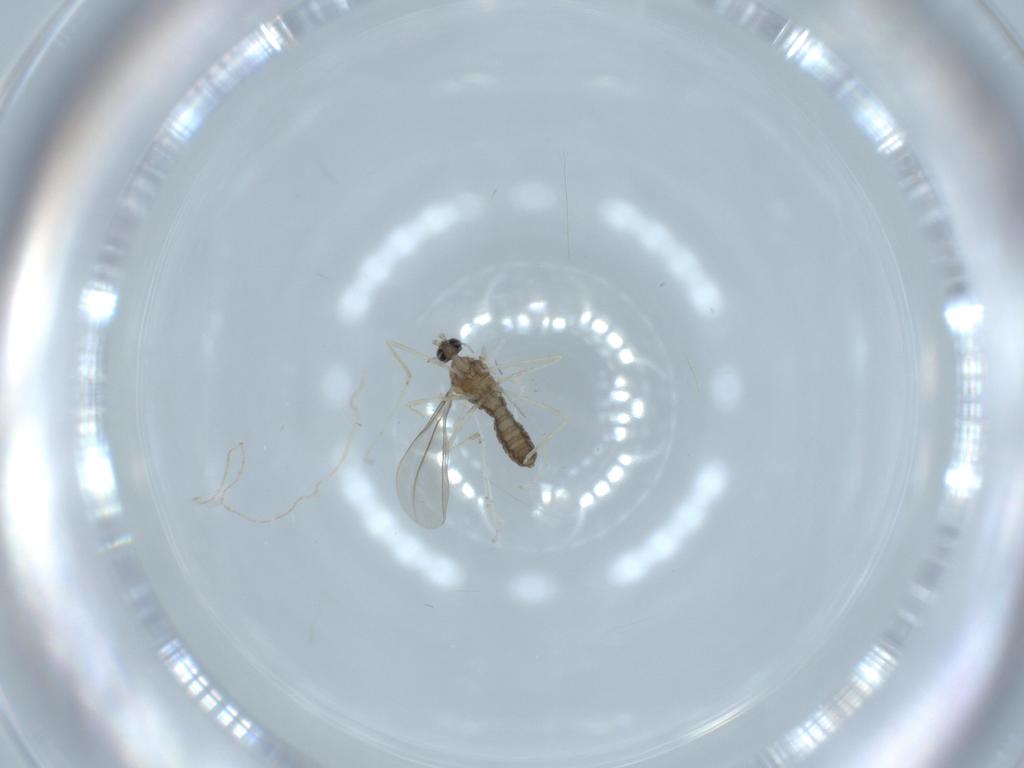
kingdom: Animalia
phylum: Arthropoda
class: Insecta
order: Diptera
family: Cecidomyiidae
